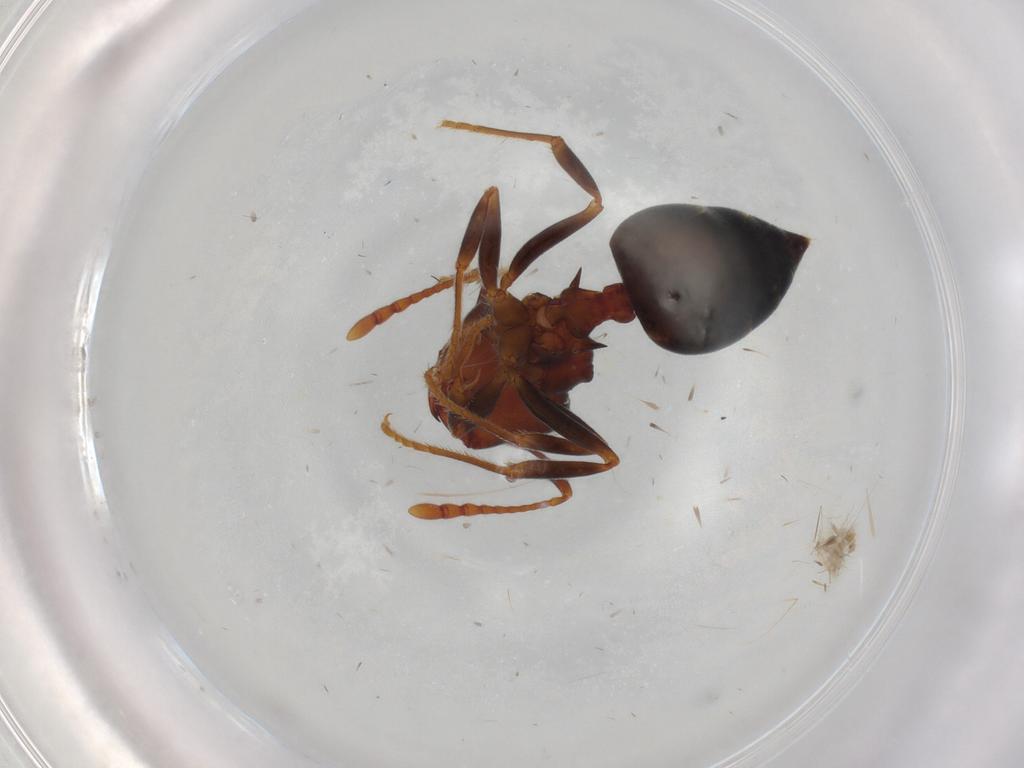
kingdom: Animalia
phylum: Arthropoda
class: Insecta
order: Hymenoptera
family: Formicidae
